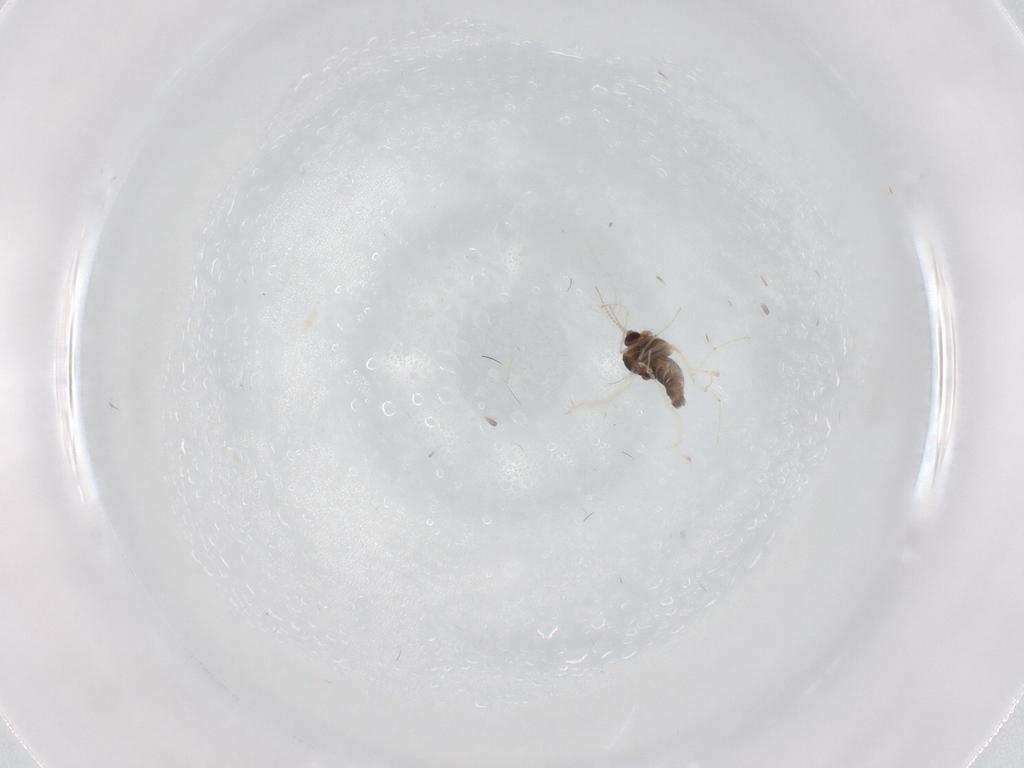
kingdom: Animalia
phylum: Arthropoda
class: Insecta
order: Diptera
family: Chironomidae
